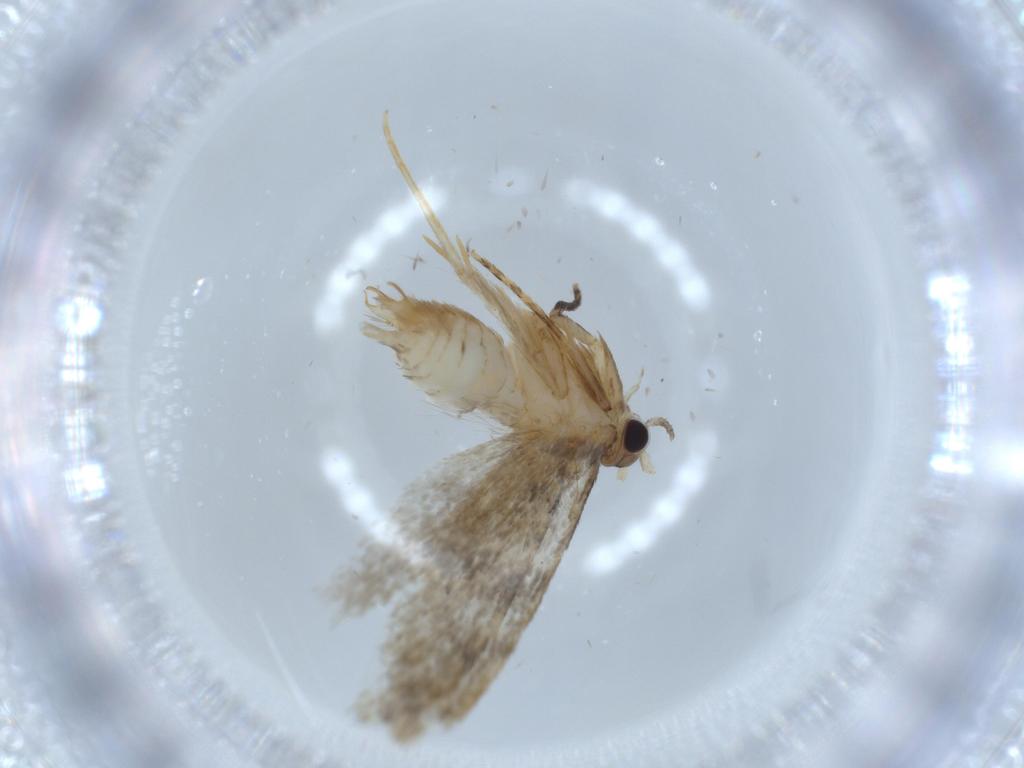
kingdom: Animalia
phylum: Arthropoda
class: Insecta
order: Lepidoptera
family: Tineidae
